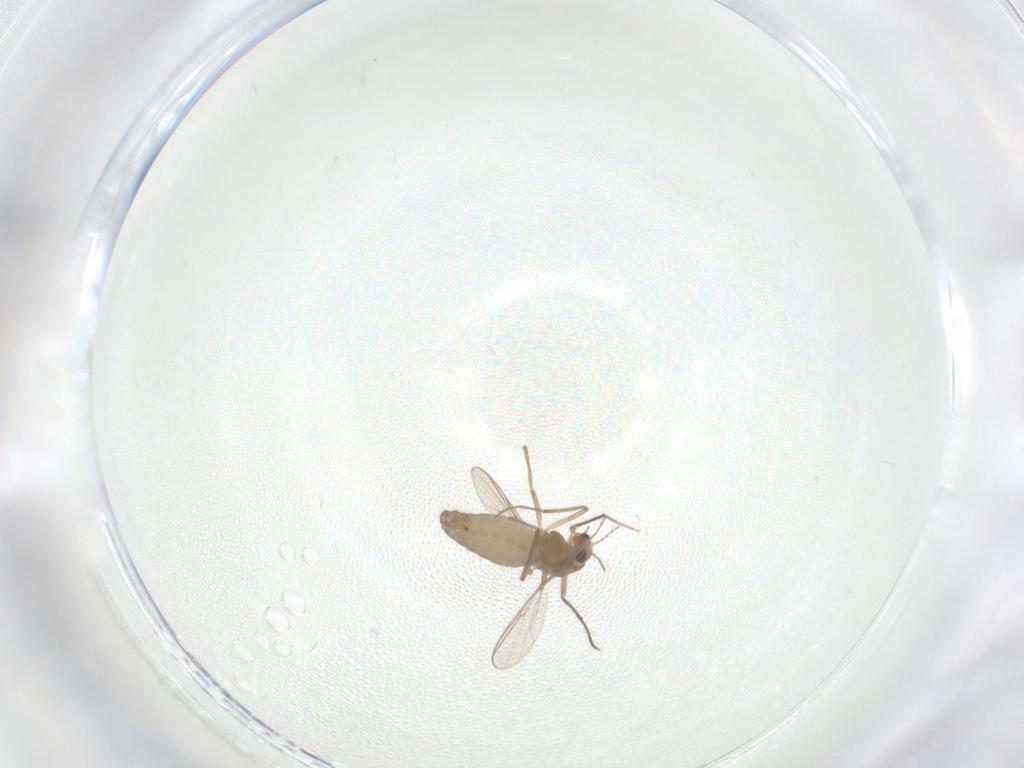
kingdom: Animalia
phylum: Arthropoda
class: Insecta
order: Diptera
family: Chironomidae
